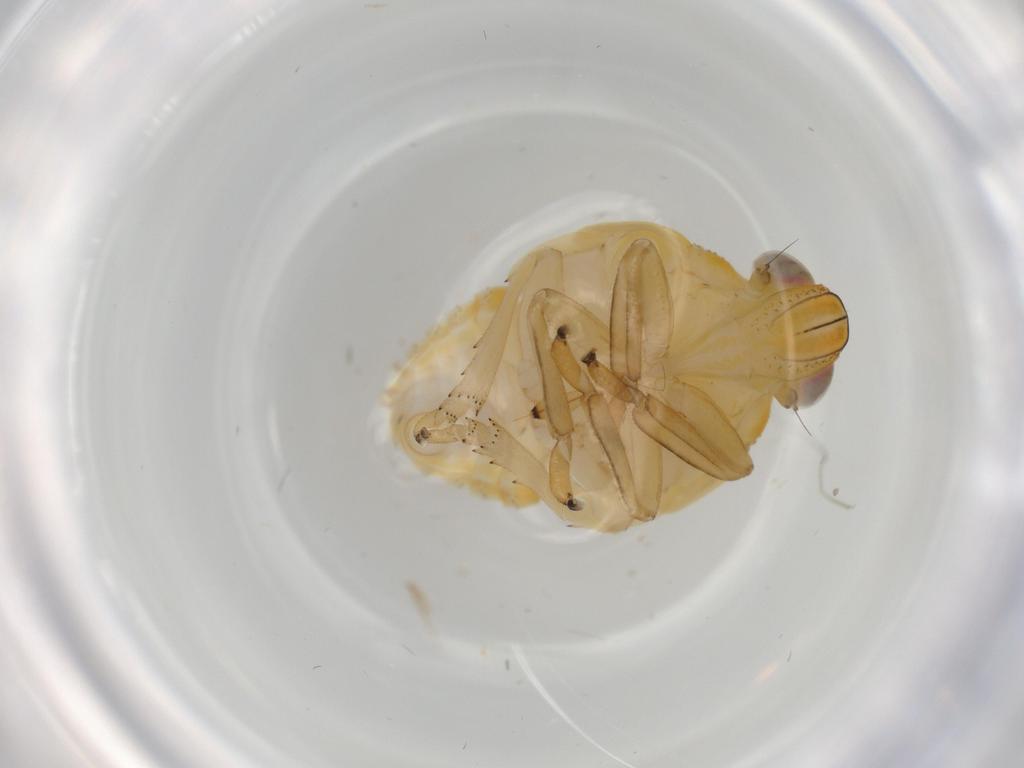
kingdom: Animalia
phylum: Arthropoda
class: Insecta
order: Hemiptera
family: Issidae
